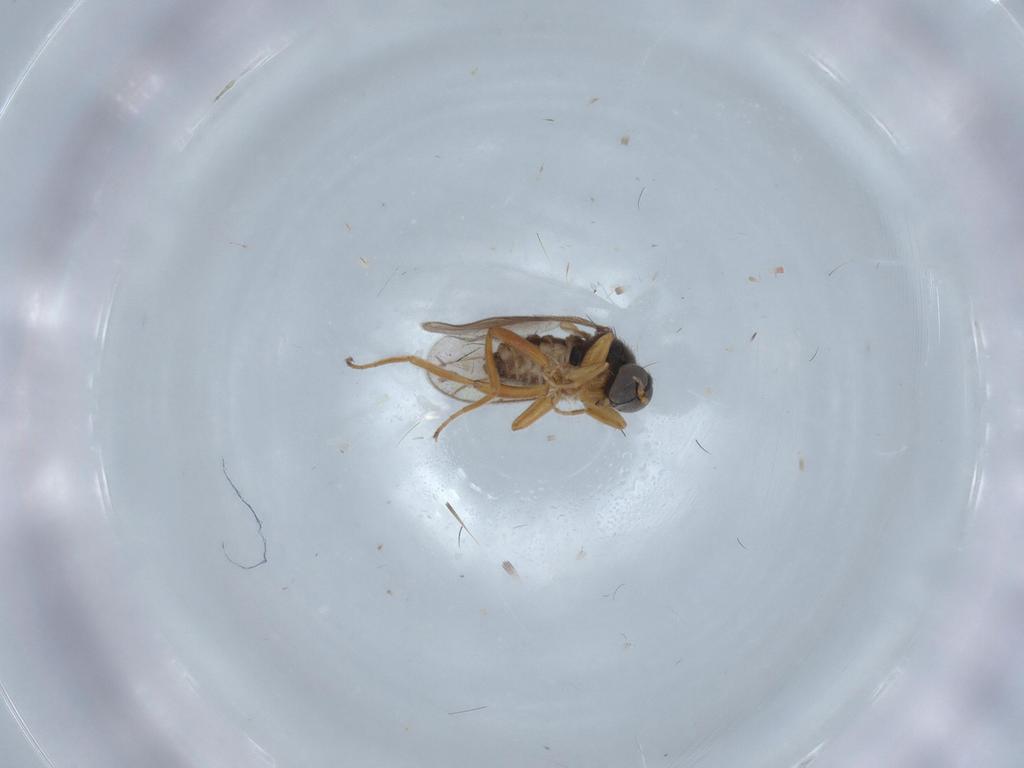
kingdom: Animalia
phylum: Arthropoda
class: Insecta
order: Diptera
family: Hybotidae
